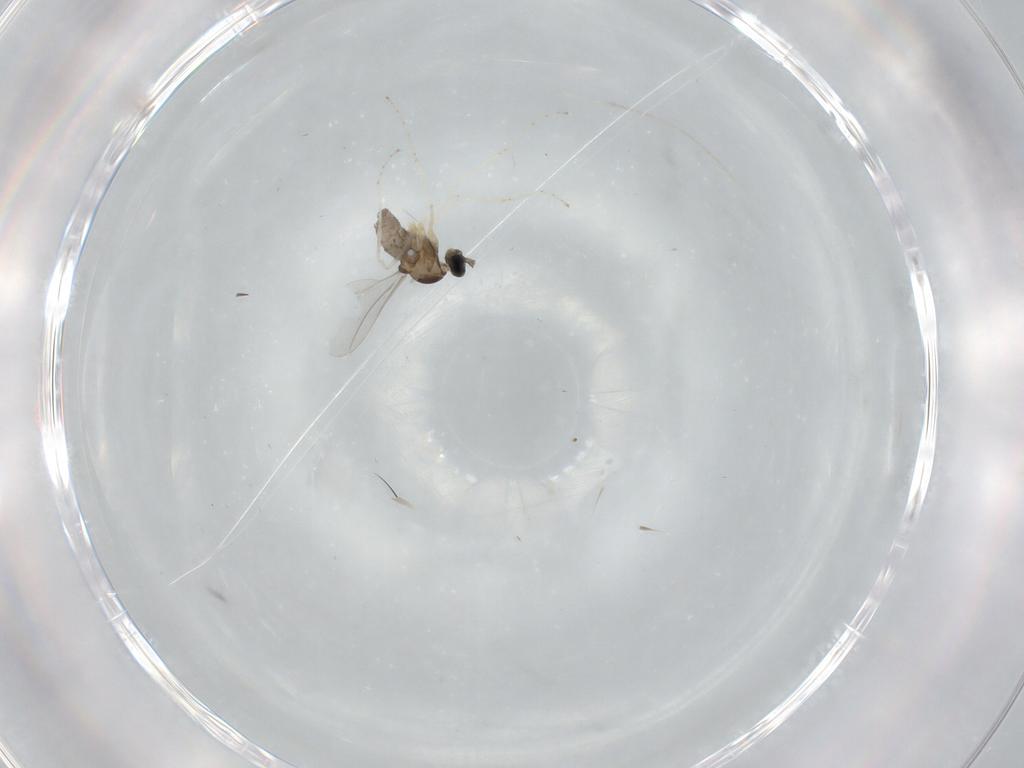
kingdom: Animalia
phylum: Arthropoda
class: Insecta
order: Diptera
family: Cecidomyiidae
